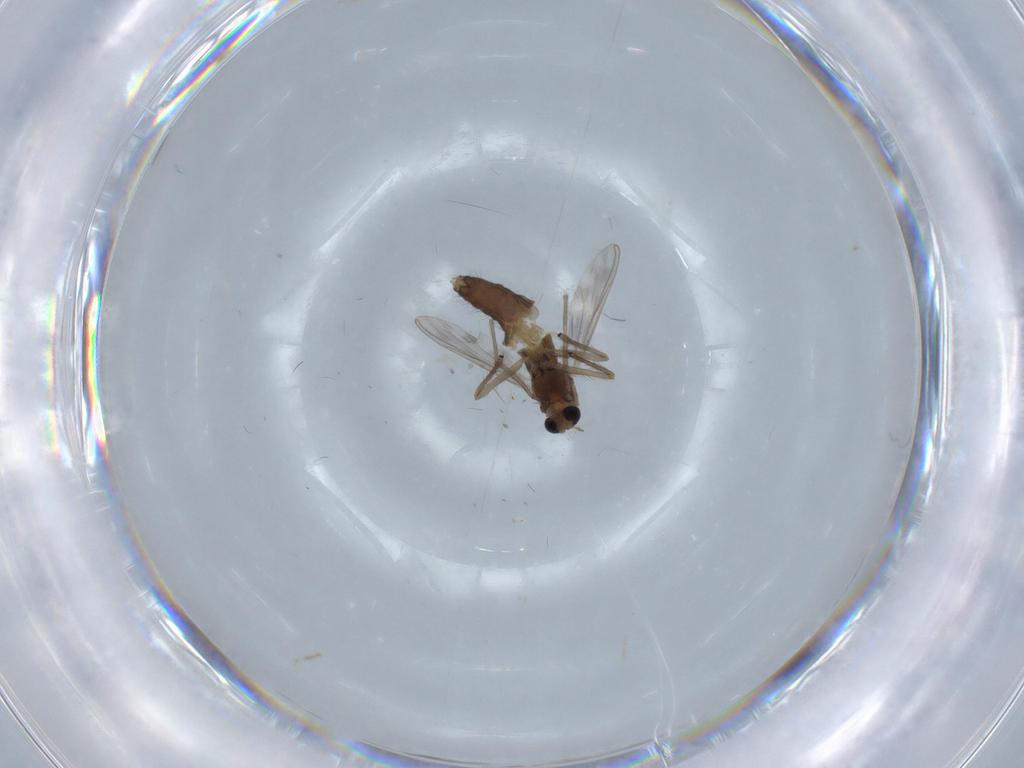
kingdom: Animalia
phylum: Arthropoda
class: Insecta
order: Diptera
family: Chironomidae
